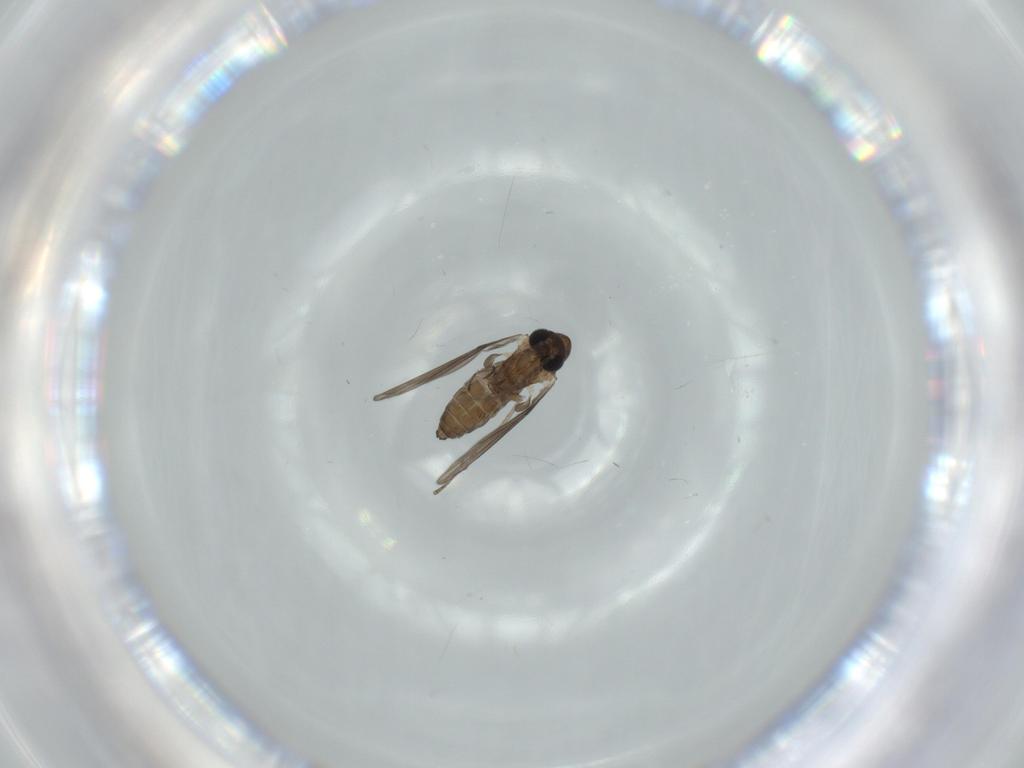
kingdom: Animalia
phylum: Arthropoda
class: Insecta
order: Diptera
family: Psychodidae
